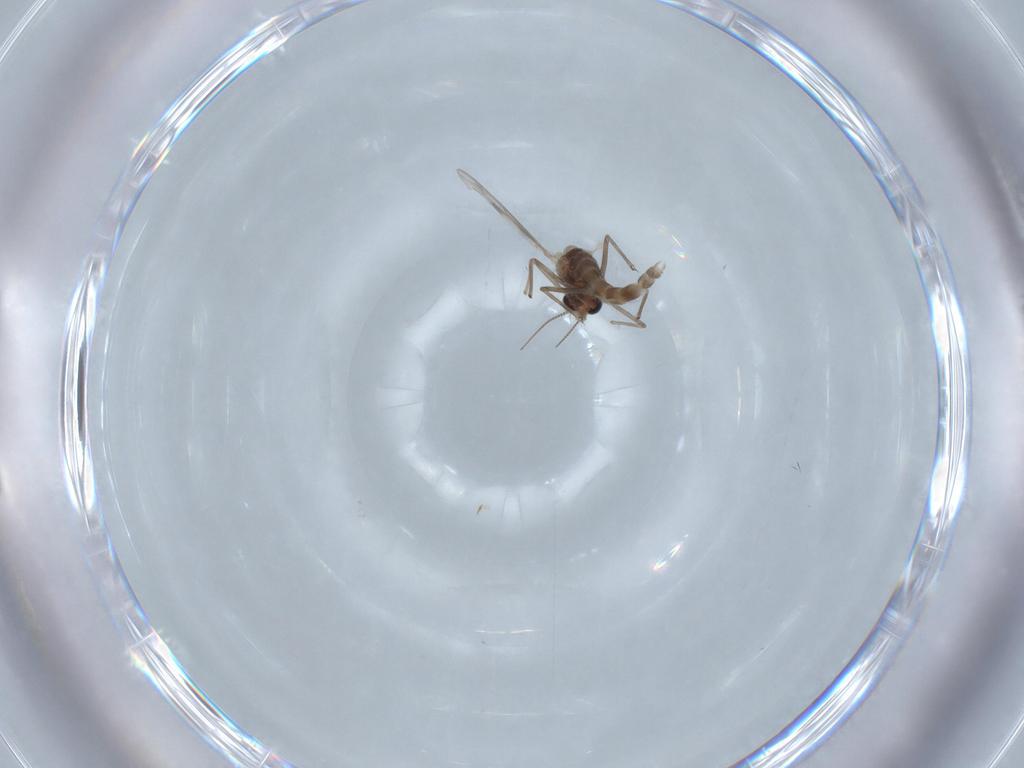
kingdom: Animalia
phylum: Arthropoda
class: Insecta
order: Diptera
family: Chironomidae
